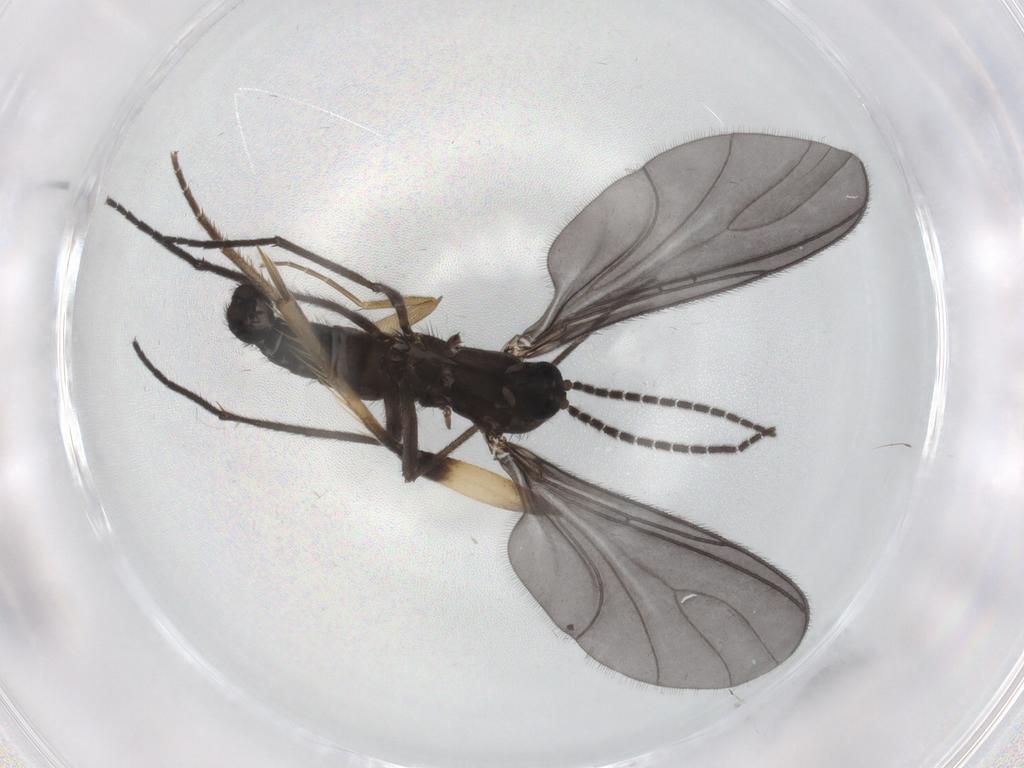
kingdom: Animalia
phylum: Arthropoda
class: Insecta
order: Diptera
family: Sciaridae
